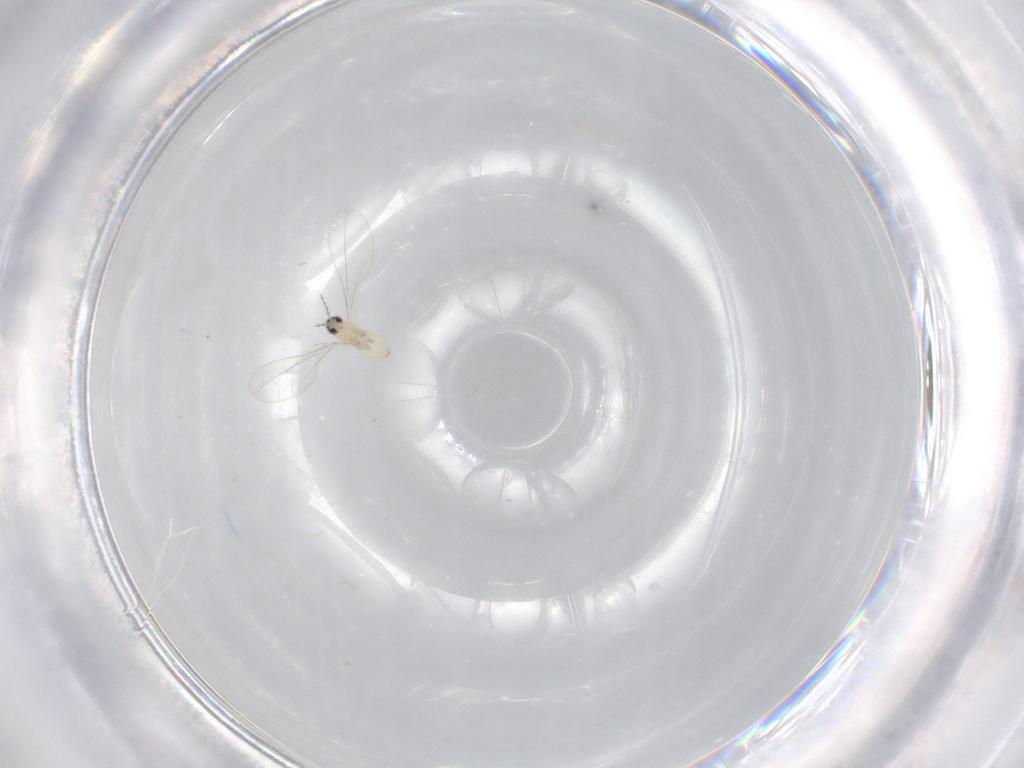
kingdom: Animalia
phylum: Arthropoda
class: Insecta
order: Diptera
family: Cecidomyiidae
